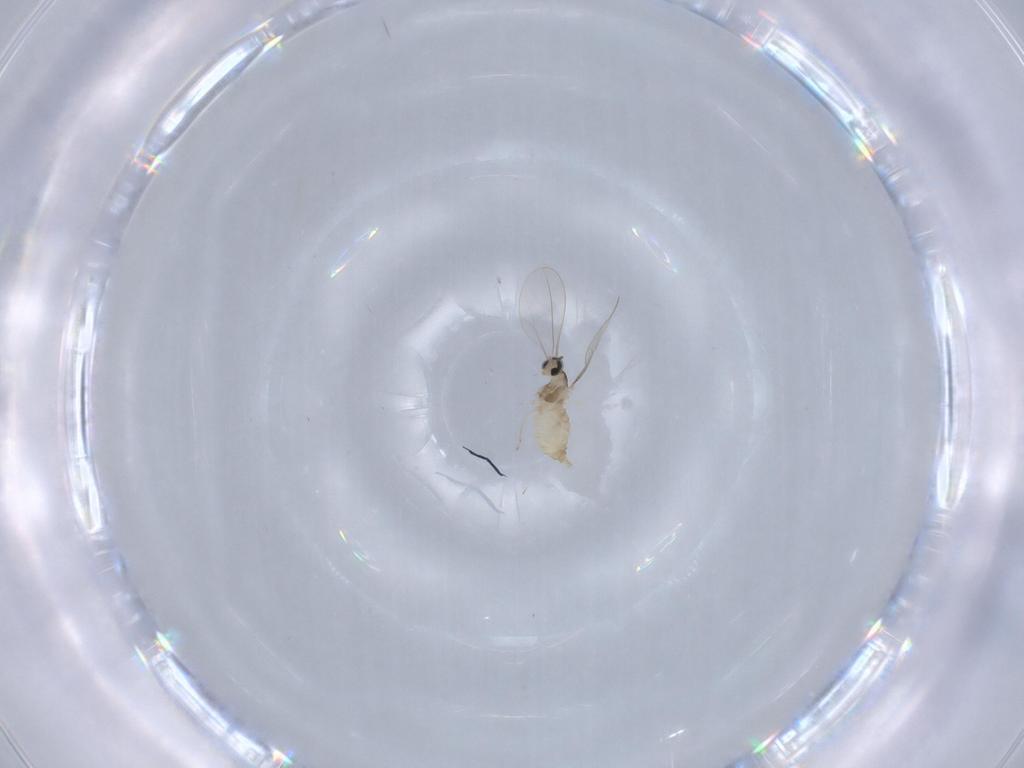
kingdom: Animalia
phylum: Arthropoda
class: Insecta
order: Diptera
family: Cecidomyiidae
